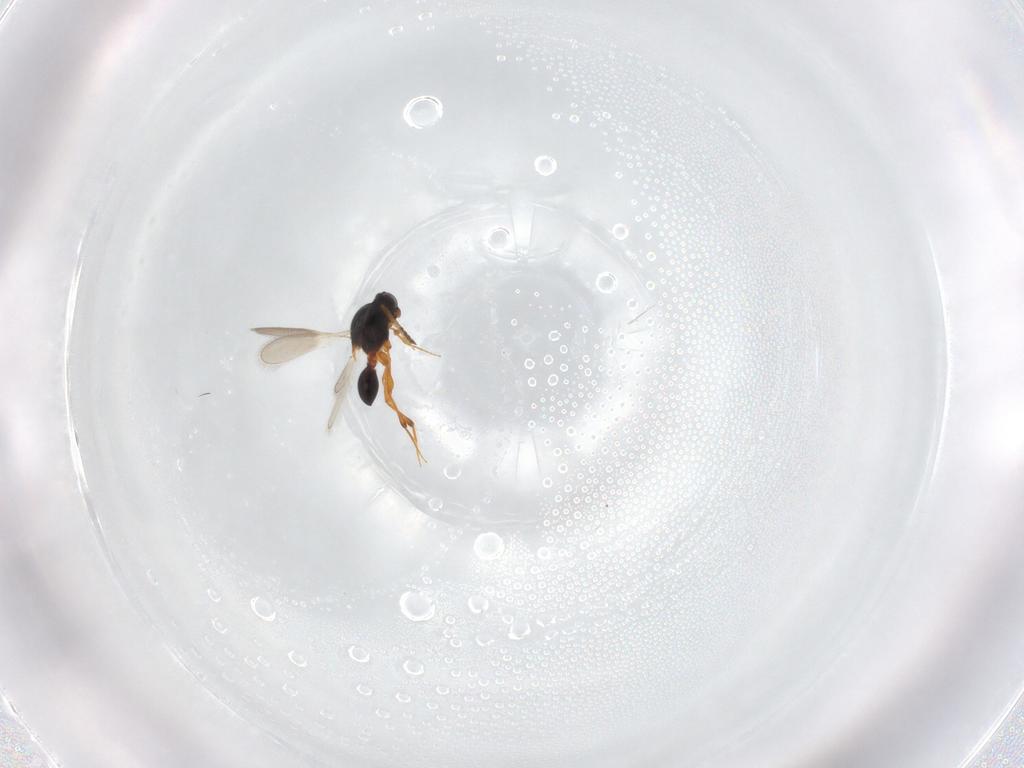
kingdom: Animalia
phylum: Arthropoda
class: Insecta
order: Hymenoptera
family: Platygastridae
